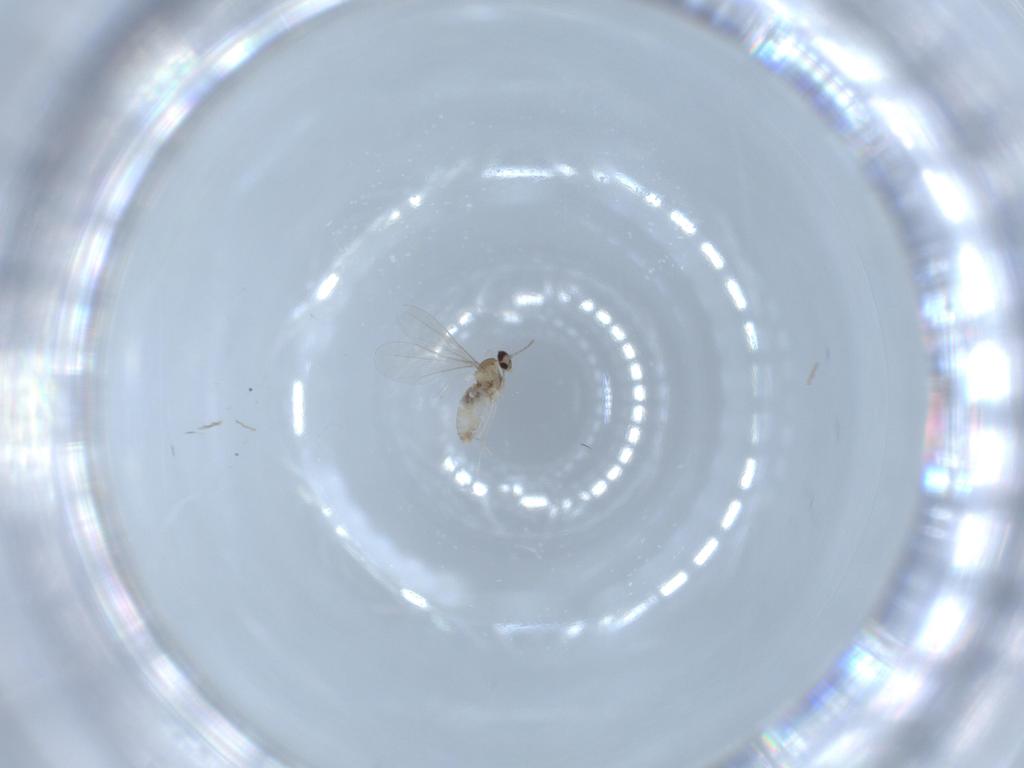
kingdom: Animalia
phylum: Arthropoda
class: Insecta
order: Diptera
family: Cecidomyiidae
